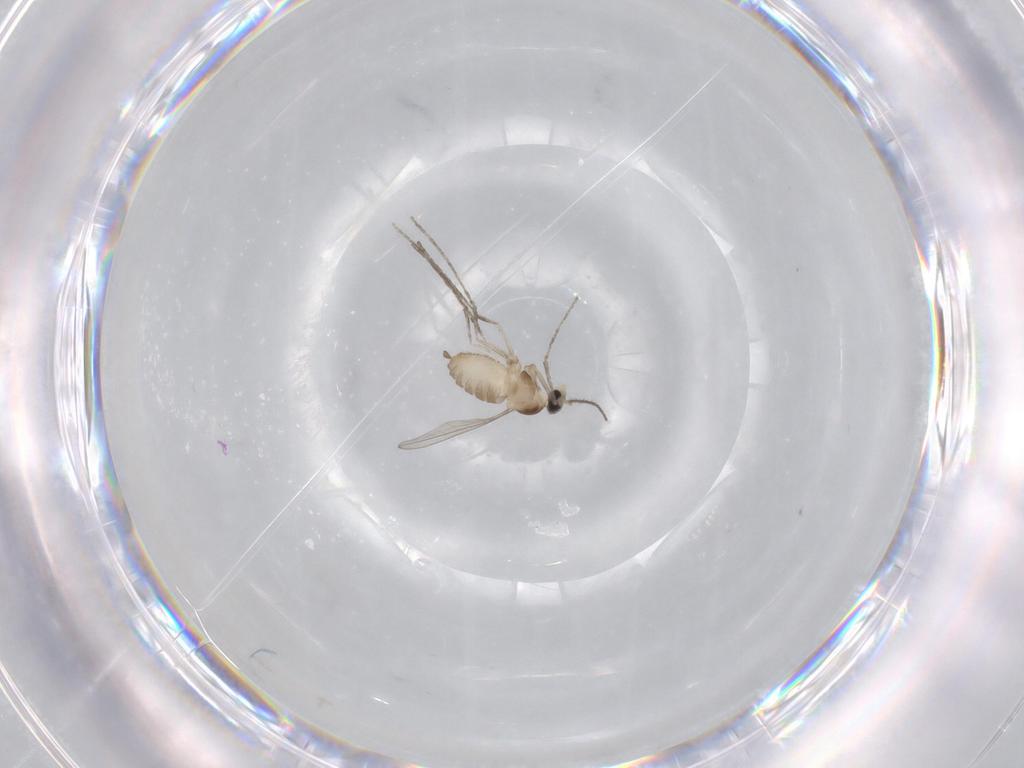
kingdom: Animalia
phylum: Arthropoda
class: Insecta
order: Diptera
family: Cecidomyiidae
